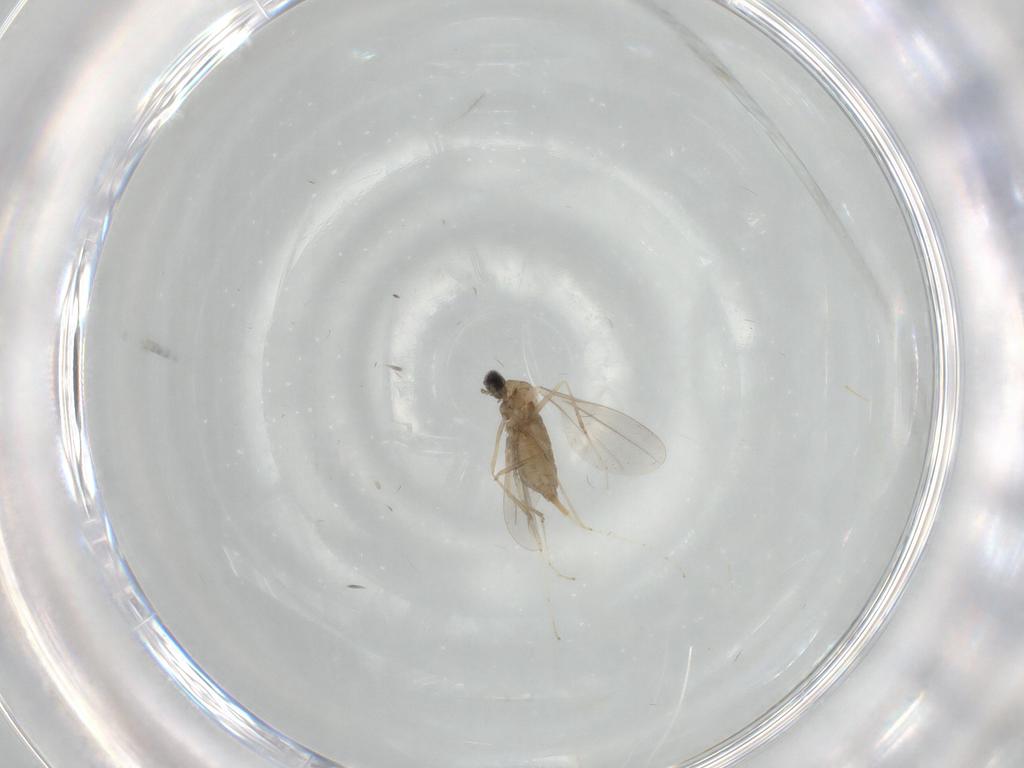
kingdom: Animalia
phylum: Arthropoda
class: Insecta
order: Diptera
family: Cecidomyiidae
